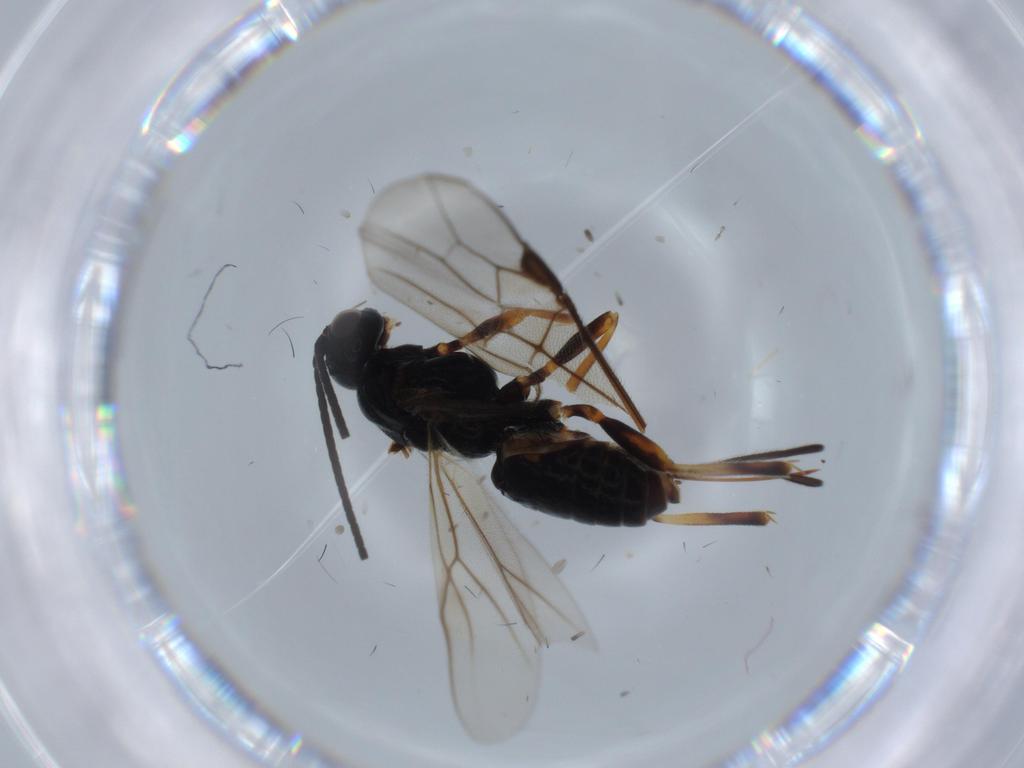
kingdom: Animalia
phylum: Arthropoda
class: Insecta
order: Hymenoptera
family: Braconidae
